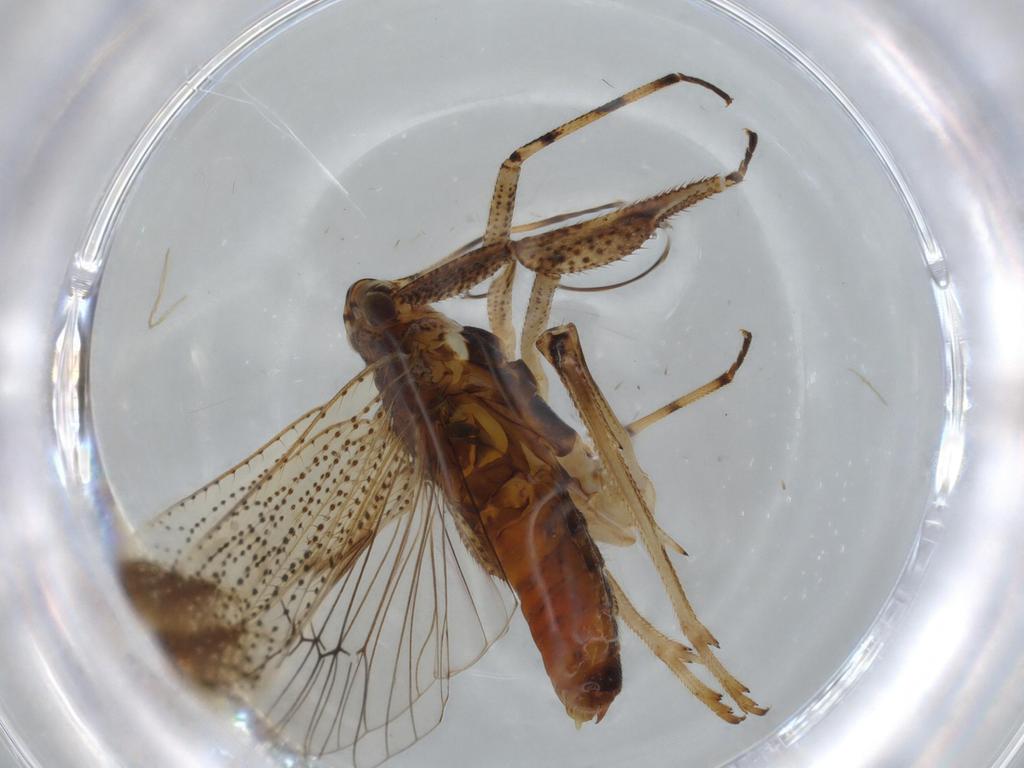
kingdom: Animalia
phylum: Arthropoda
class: Insecta
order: Hemiptera
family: Delphacidae
